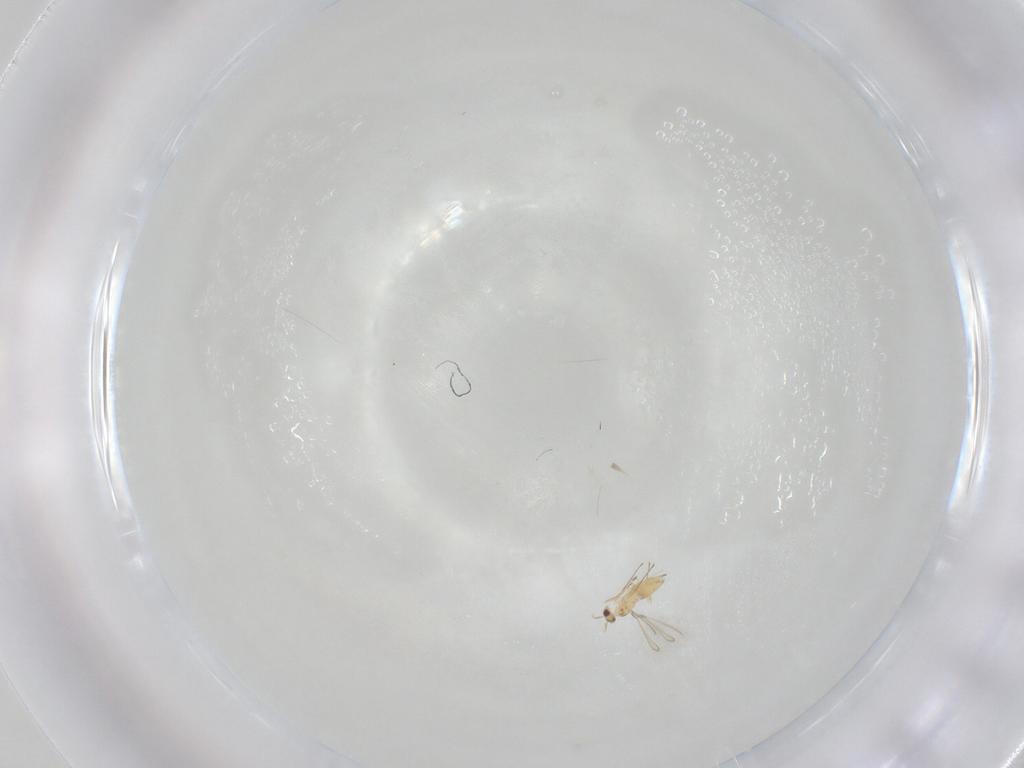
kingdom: Animalia
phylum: Arthropoda
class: Insecta
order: Hymenoptera
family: Mymaridae
